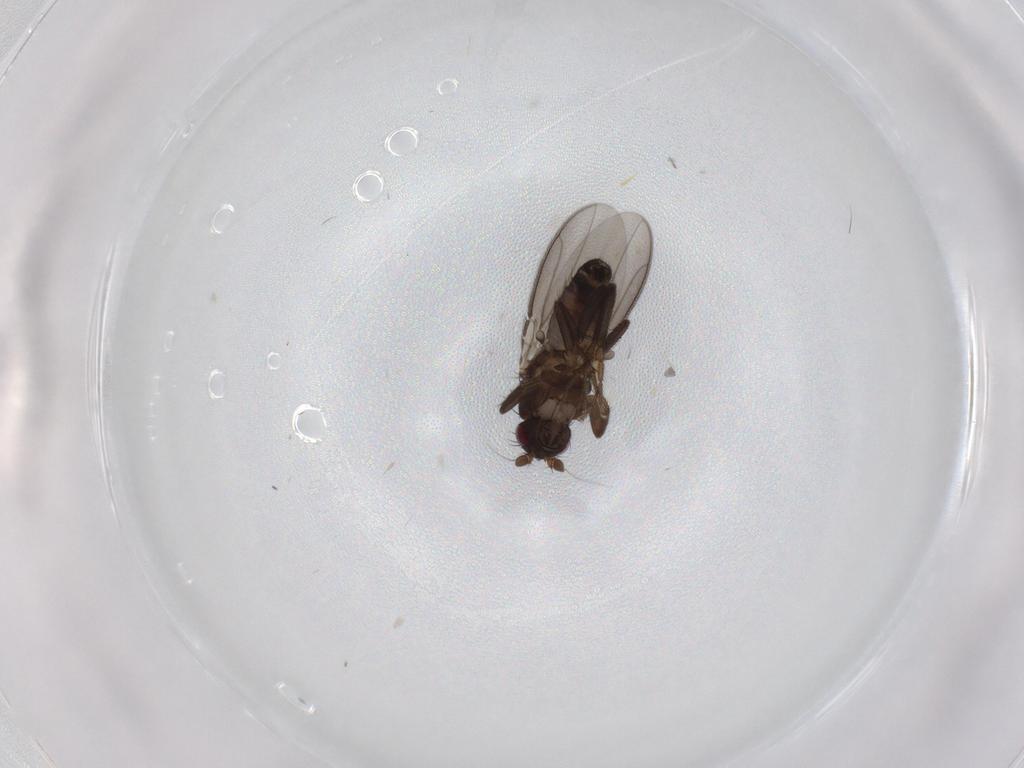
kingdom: Animalia
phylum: Arthropoda
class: Insecta
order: Diptera
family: Sphaeroceridae
